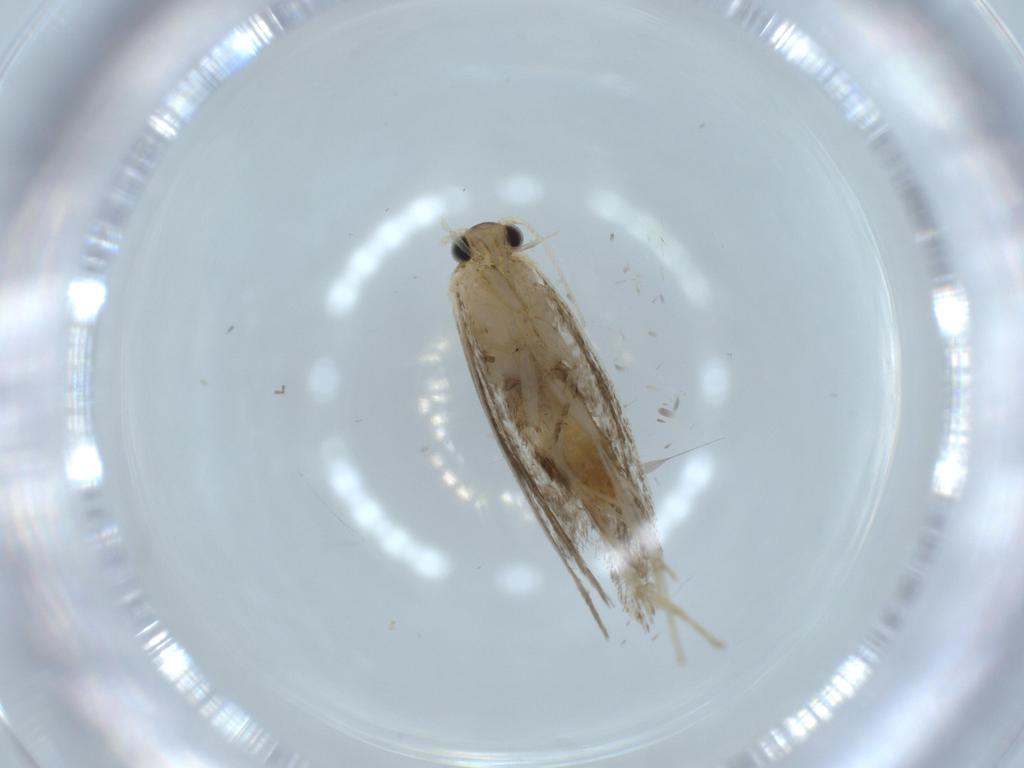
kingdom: Animalia
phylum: Arthropoda
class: Insecta
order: Lepidoptera
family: Tineidae
